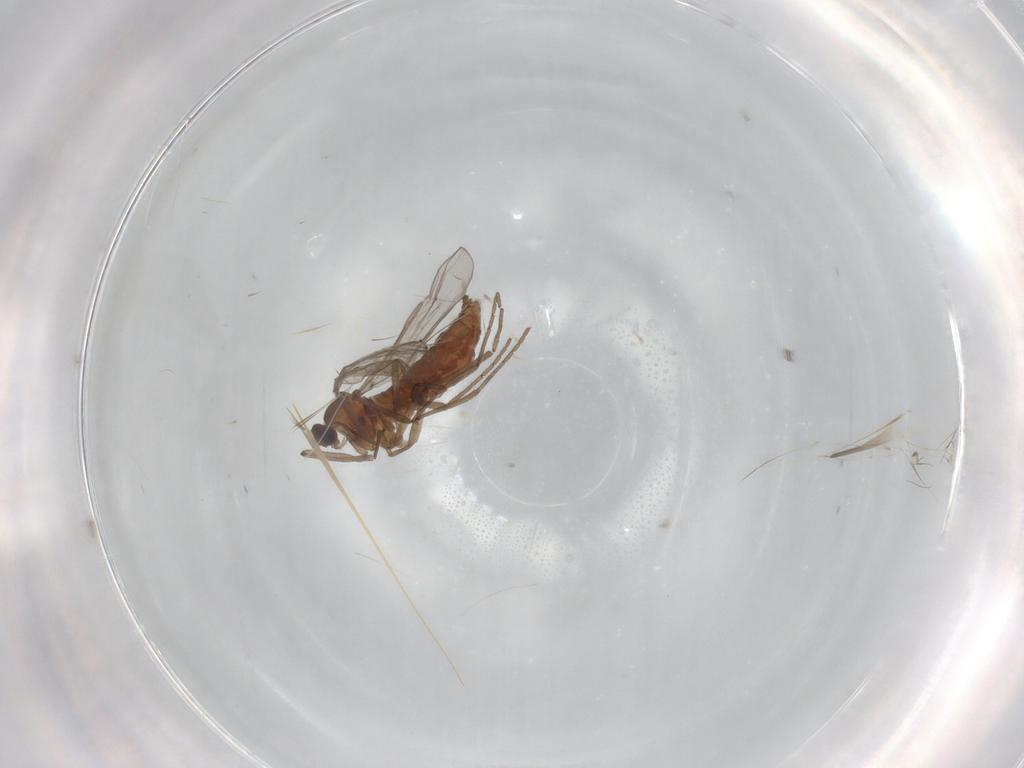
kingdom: Animalia
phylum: Arthropoda
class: Insecta
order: Diptera
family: Cecidomyiidae
